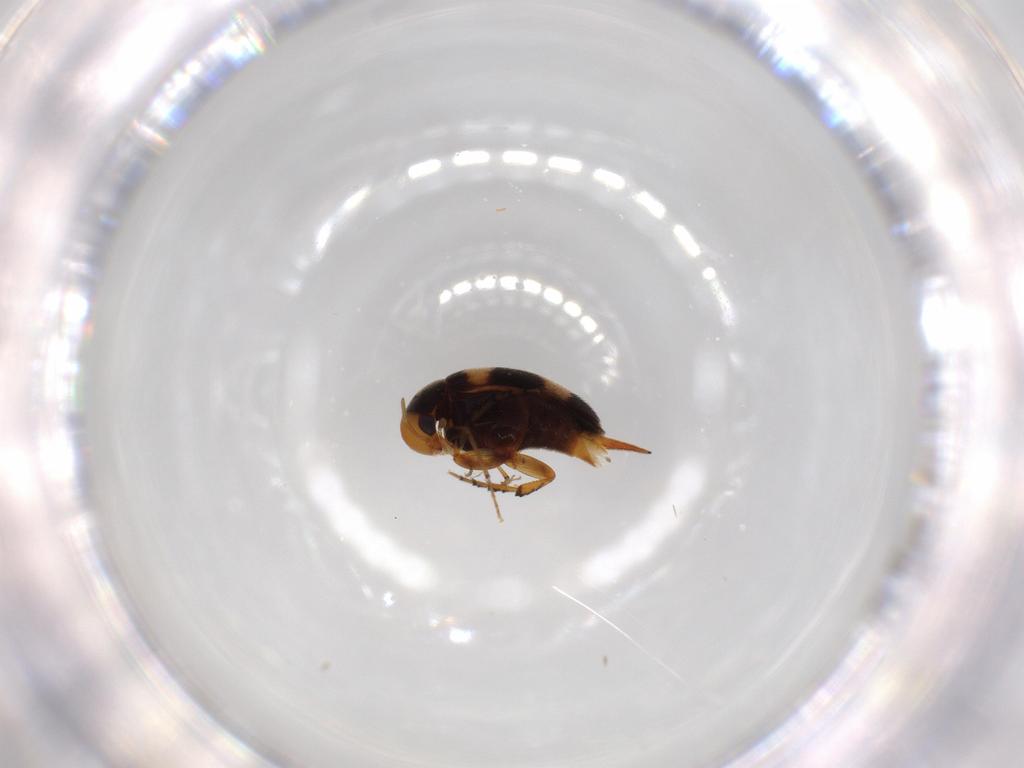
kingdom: Animalia
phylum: Arthropoda
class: Insecta
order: Coleoptera
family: Mordellidae
